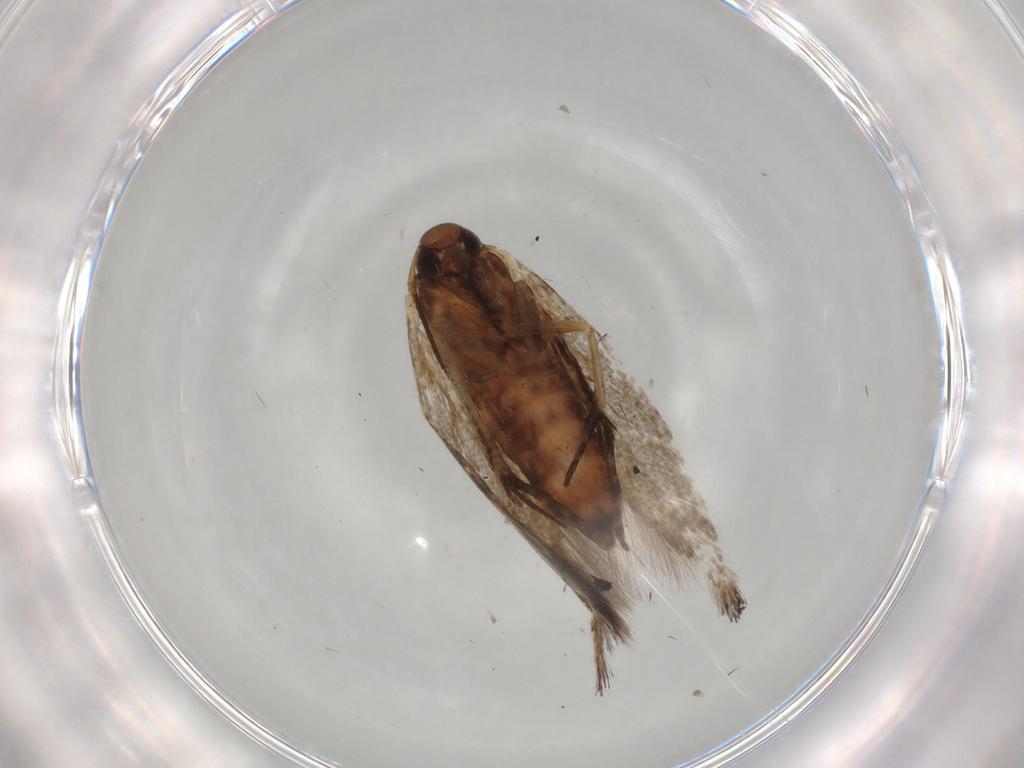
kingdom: Animalia
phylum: Arthropoda
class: Insecta
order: Lepidoptera
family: Cosmopterigidae
